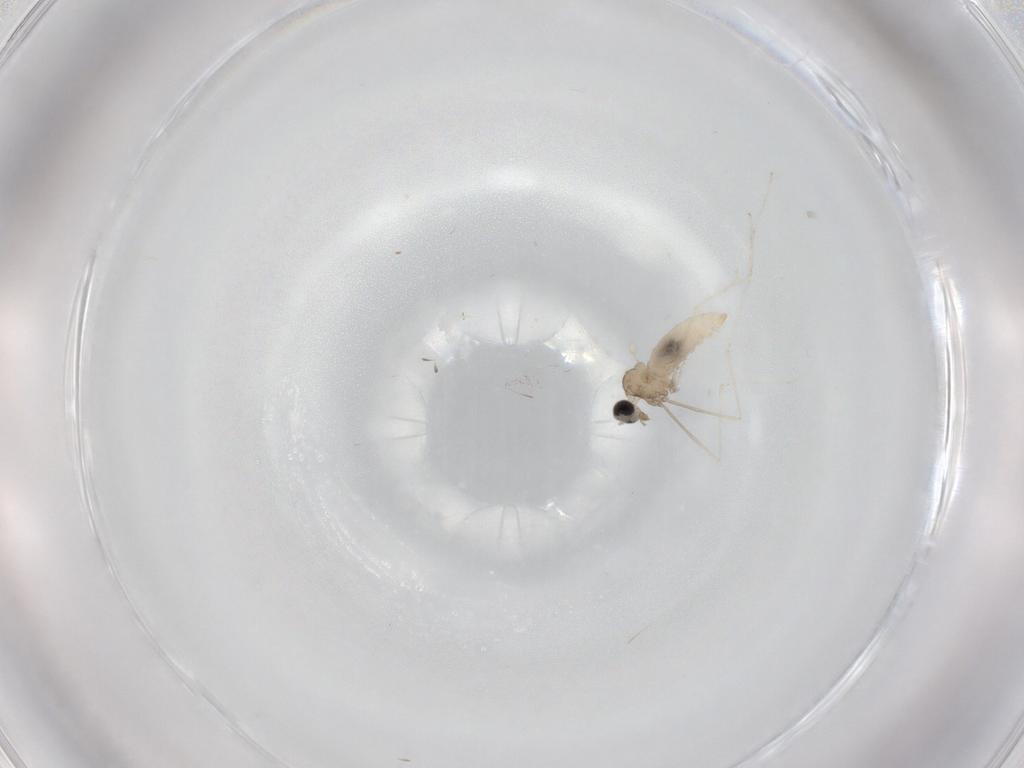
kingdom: Animalia
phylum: Arthropoda
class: Insecta
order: Diptera
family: Cecidomyiidae
